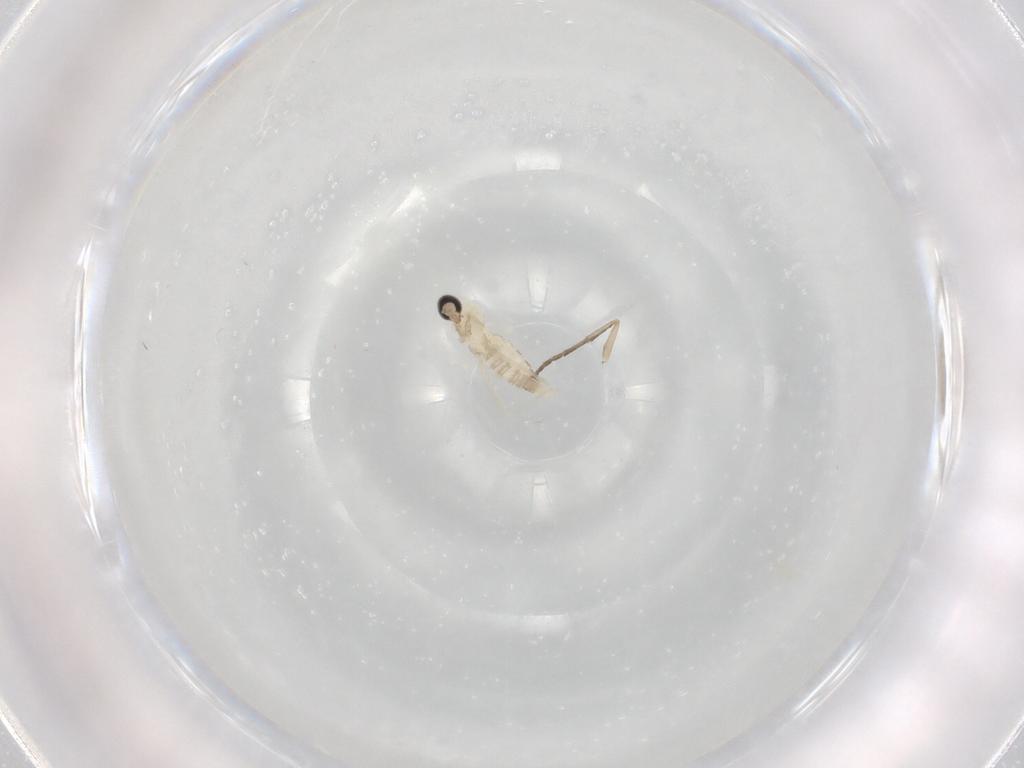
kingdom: Animalia
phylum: Arthropoda
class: Insecta
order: Diptera
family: Cecidomyiidae
